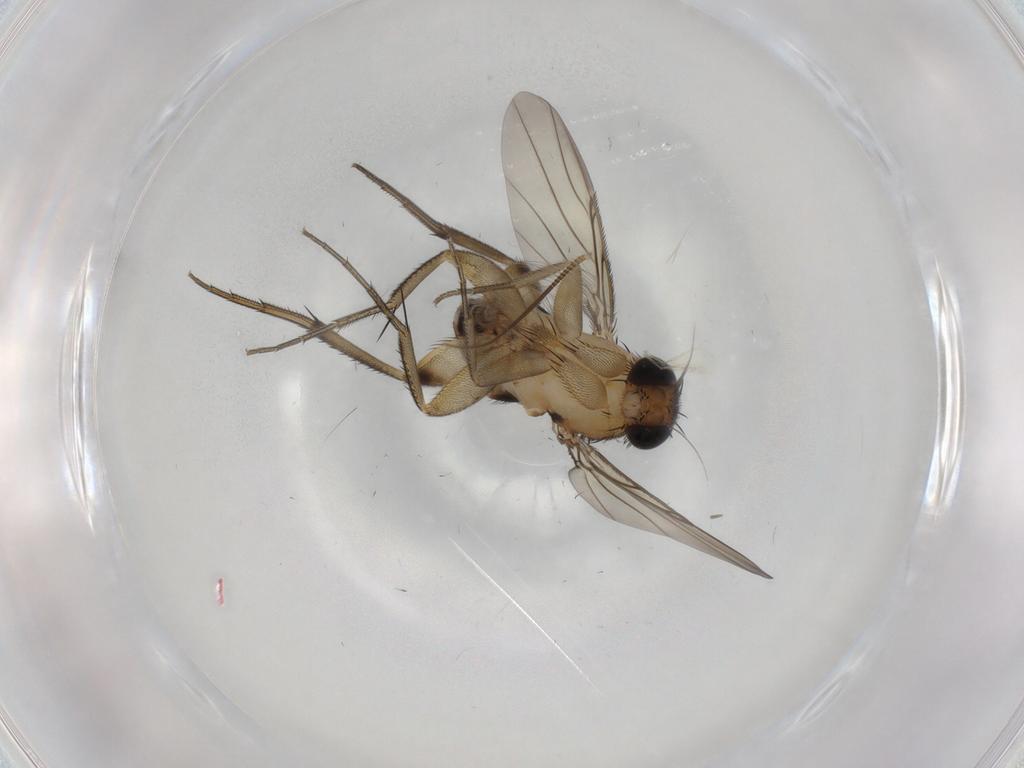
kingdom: Animalia
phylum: Arthropoda
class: Insecta
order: Diptera
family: Phoridae
